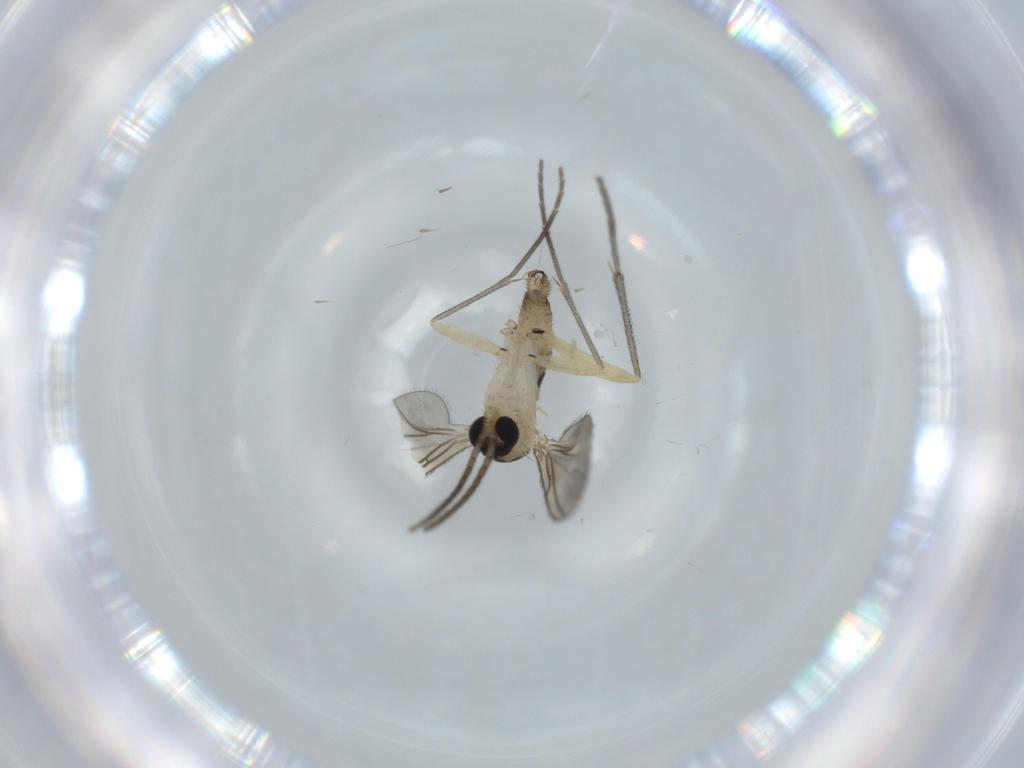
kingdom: Animalia
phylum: Arthropoda
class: Insecta
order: Diptera
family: Sciaridae
